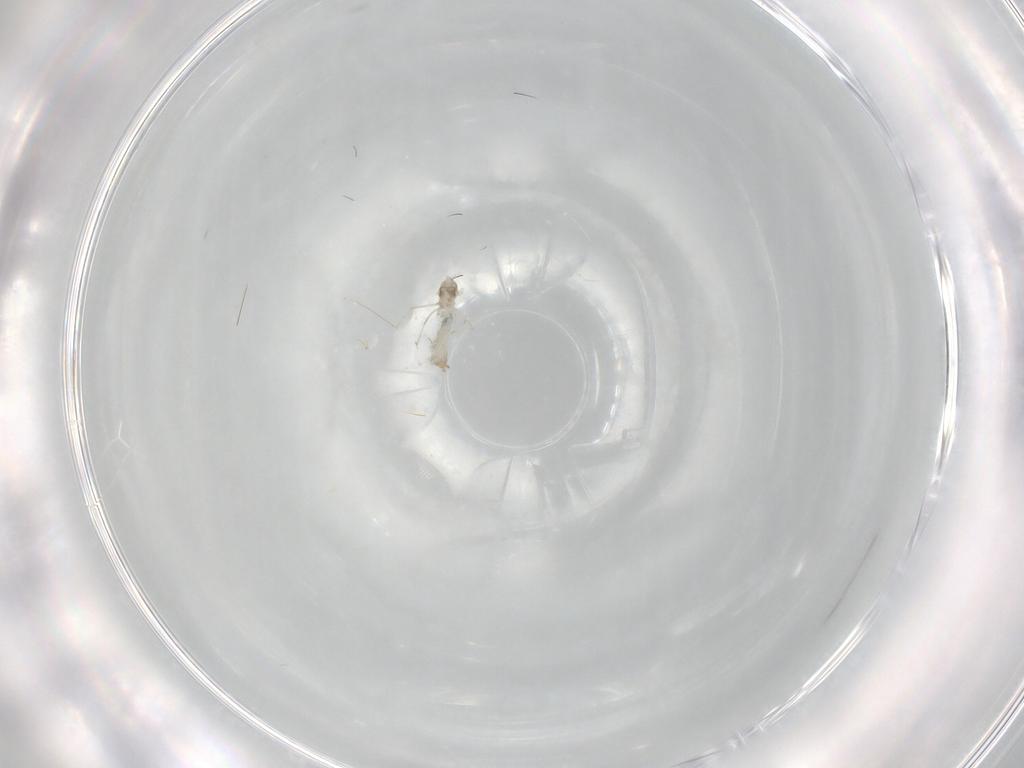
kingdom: Animalia
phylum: Arthropoda
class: Insecta
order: Diptera
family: Cecidomyiidae
